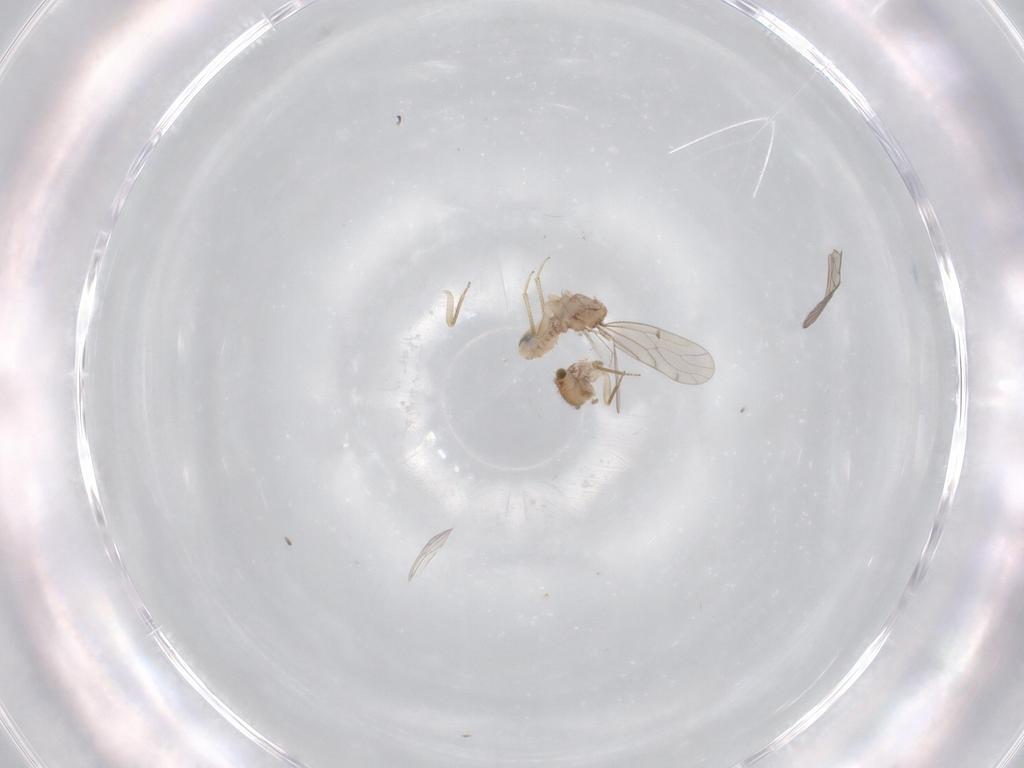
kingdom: Animalia
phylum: Arthropoda
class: Insecta
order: Psocodea
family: Ectopsocidae
